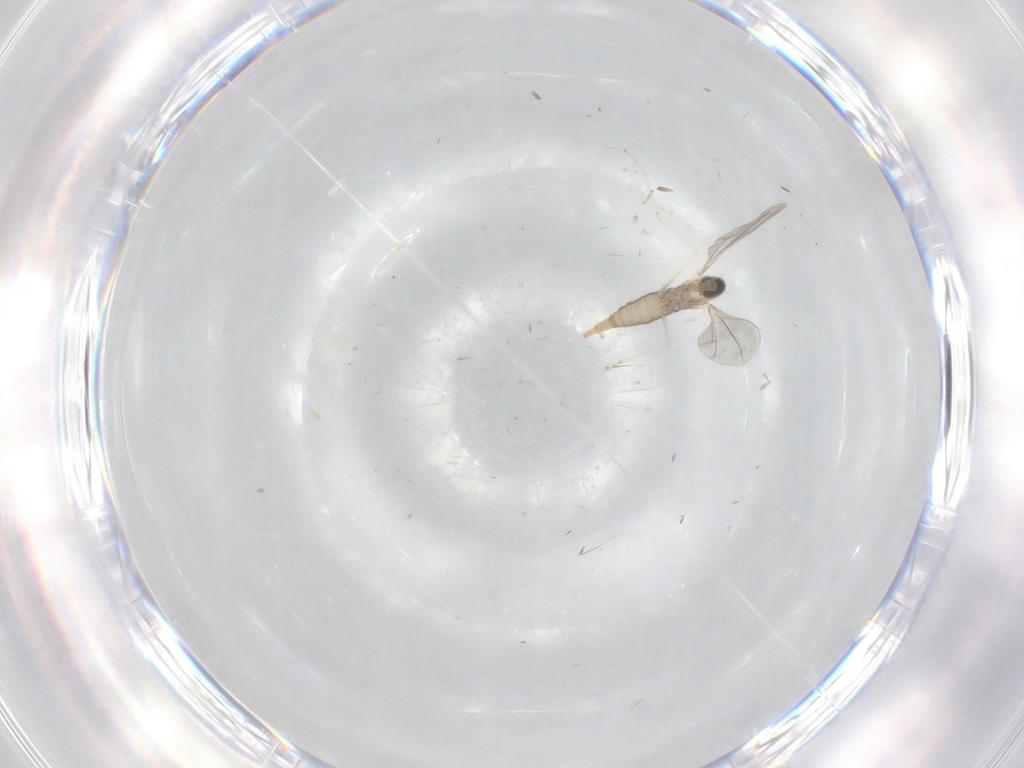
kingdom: Animalia
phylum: Arthropoda
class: Insecta
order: Diptera
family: Cecidomyiidae
